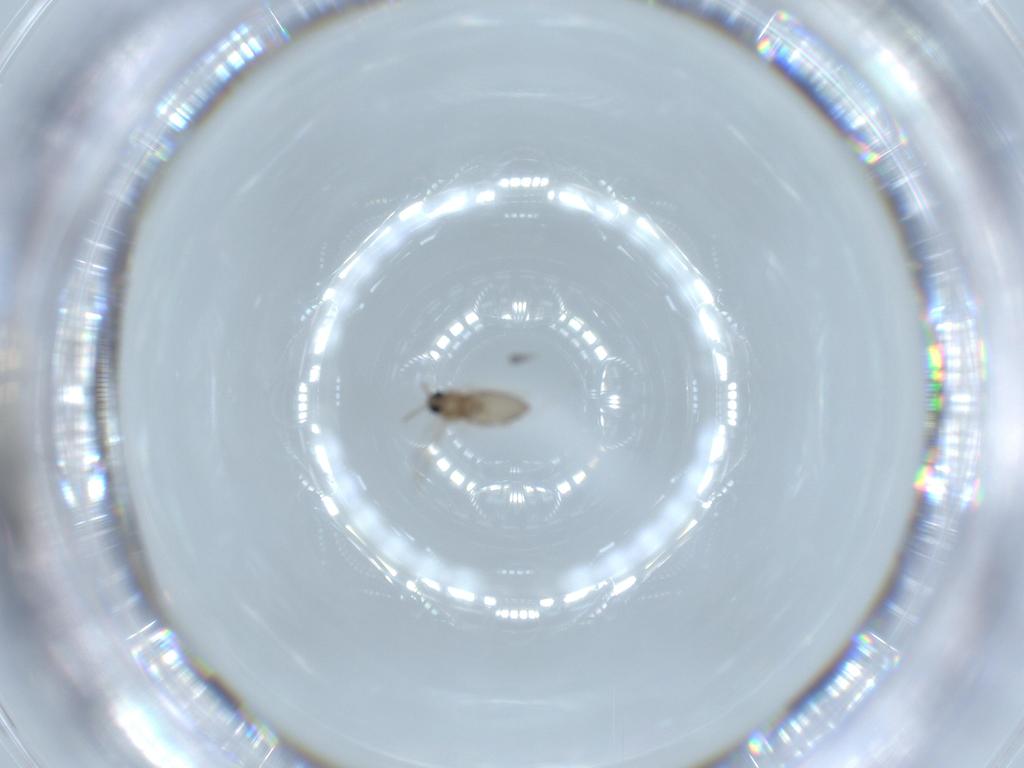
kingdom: Animalia
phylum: Arthropoda
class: Insecta
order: Diptera
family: Cecidomyiidae
